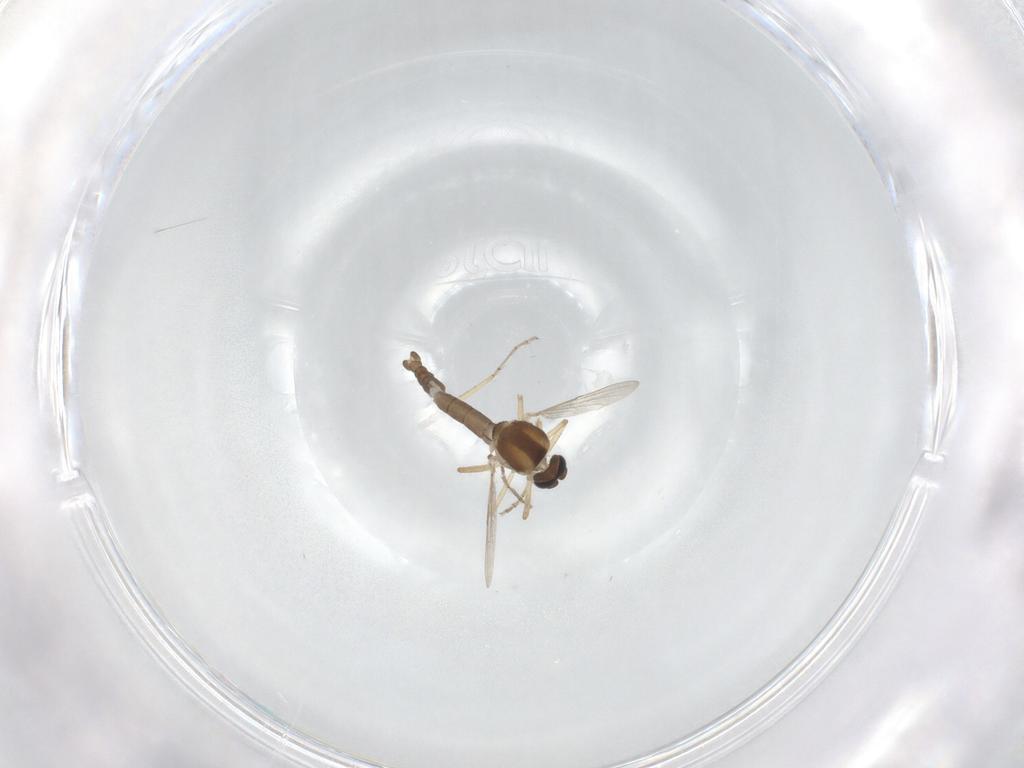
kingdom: Animalia
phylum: Arthropoda
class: Insecta
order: Diptera
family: Ceratopogonidae
